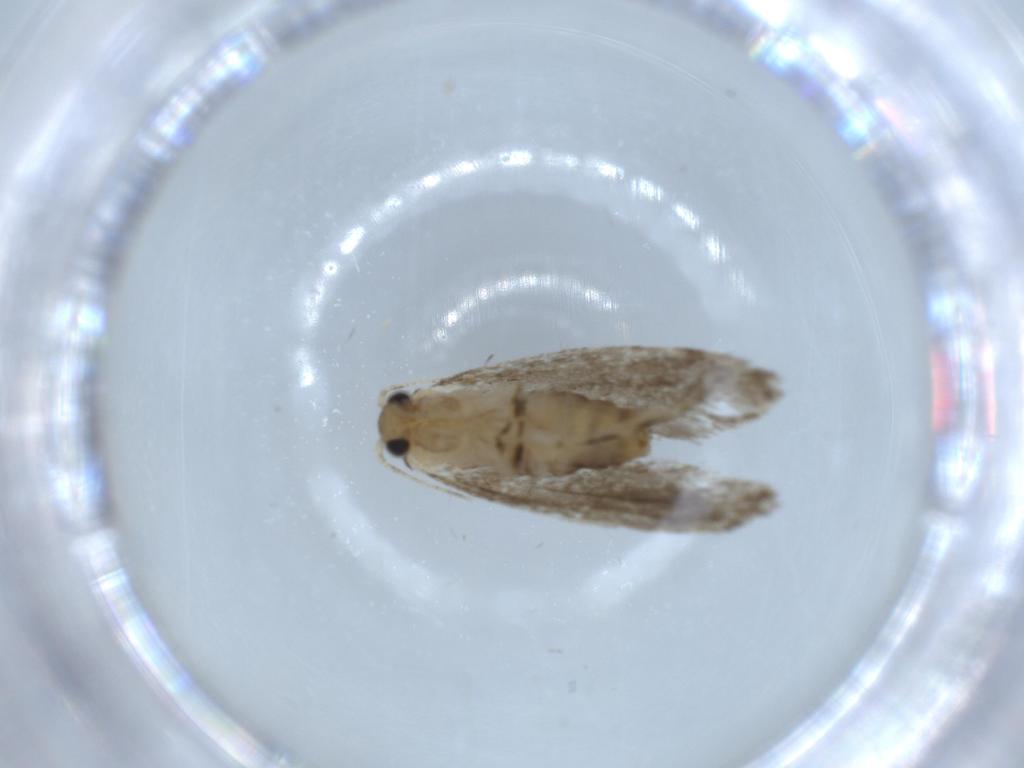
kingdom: Animalia
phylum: Arthropoda
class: Insecta
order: Lepidoptera
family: Tineidae
